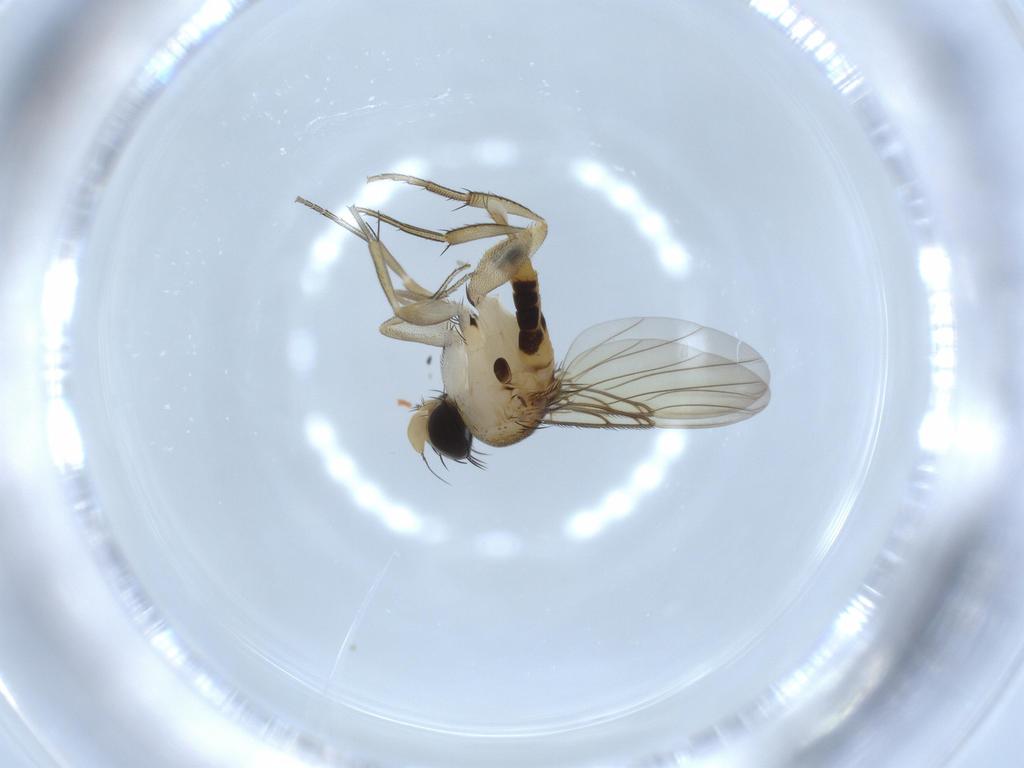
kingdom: Animalia
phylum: Arthropoda
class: Insecta
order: Diptera
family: Phoridae
